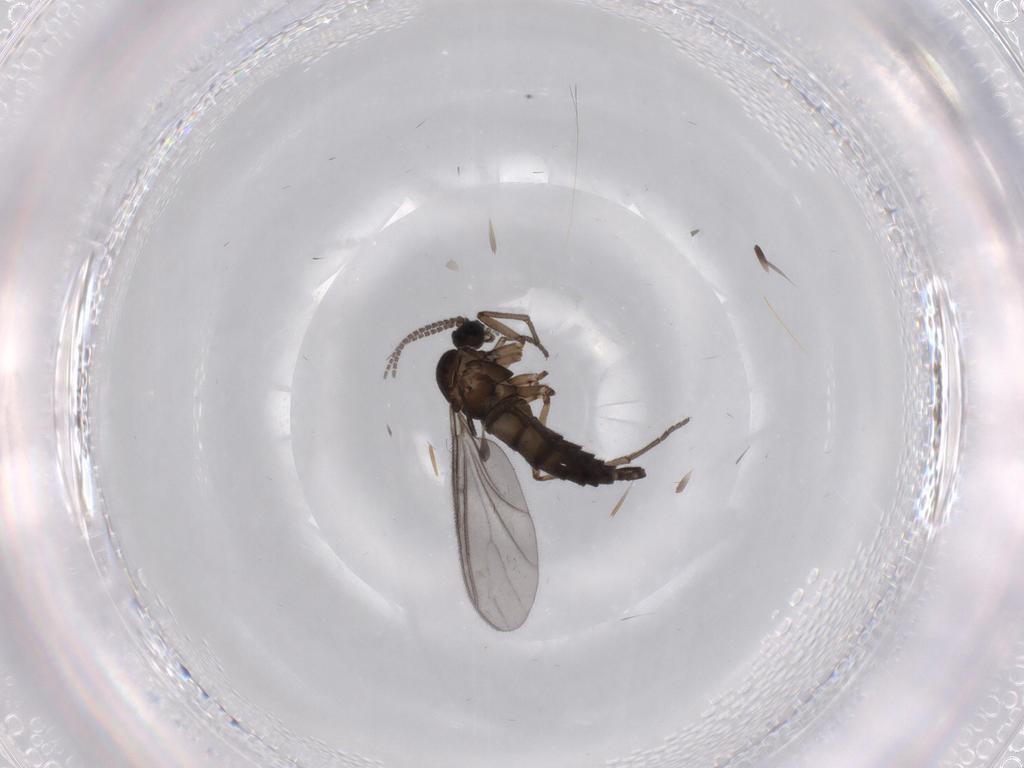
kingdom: Animalia
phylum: Arthropoda
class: Insecta
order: Diptera
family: Sciaridae
